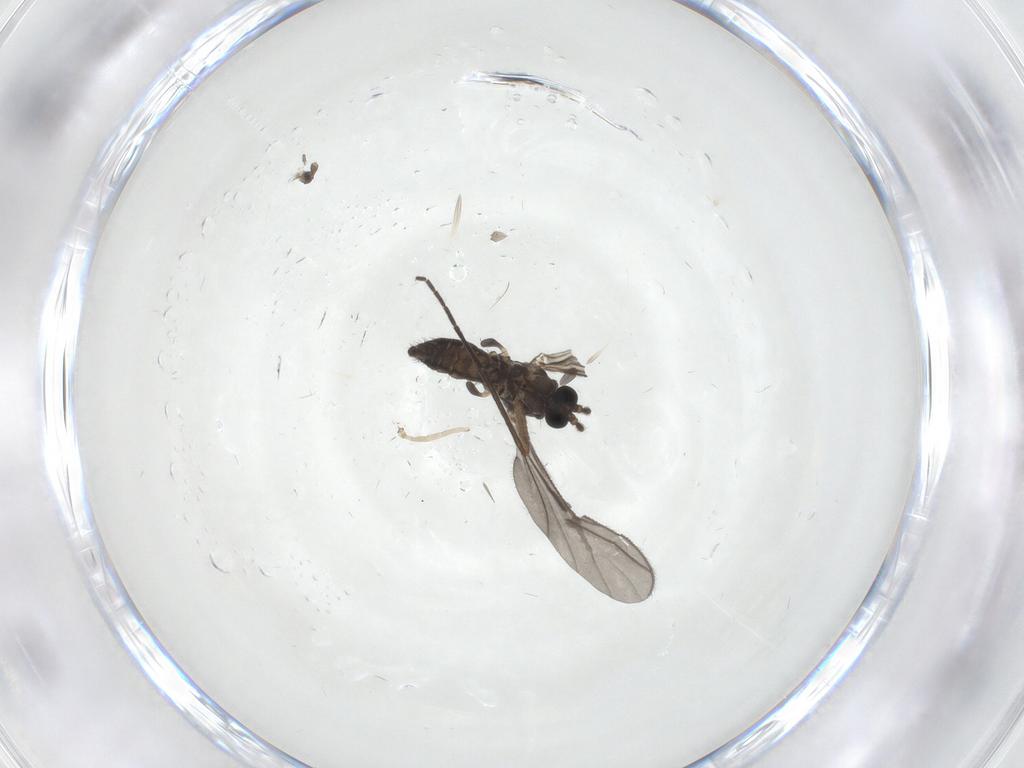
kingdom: Animalia
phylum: Arthropoda
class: Insecta
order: Diptera
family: Sciaridae
